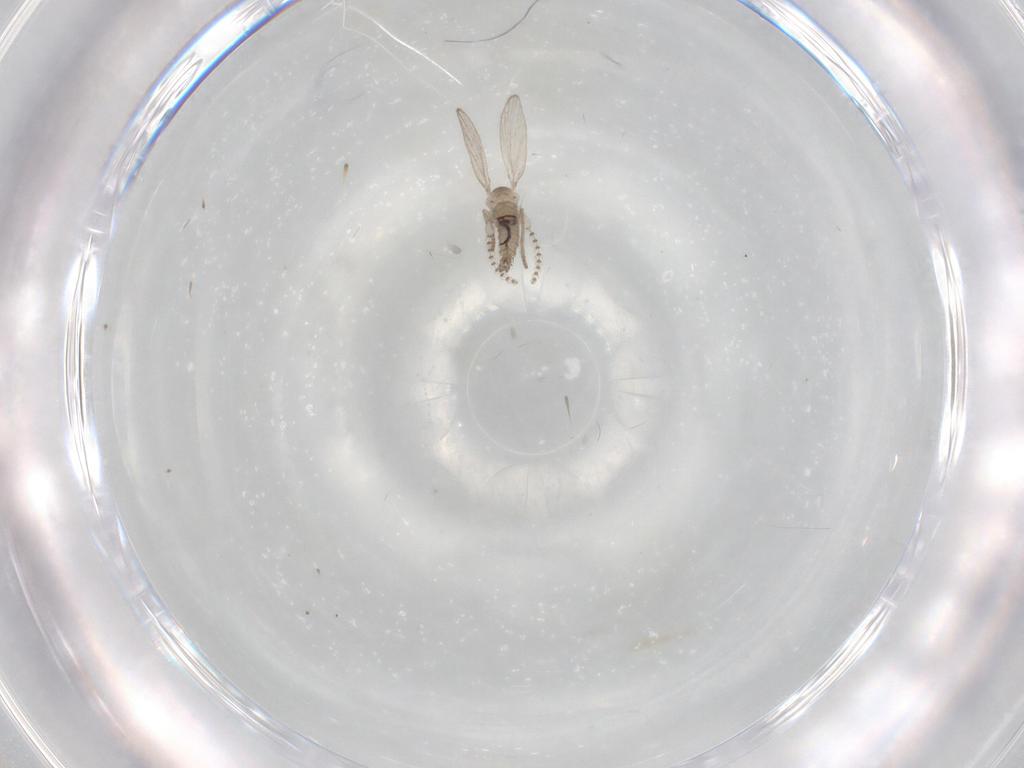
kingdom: Animalia
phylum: Arthropoda
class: Insecta
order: Diptera
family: Psychodidae
